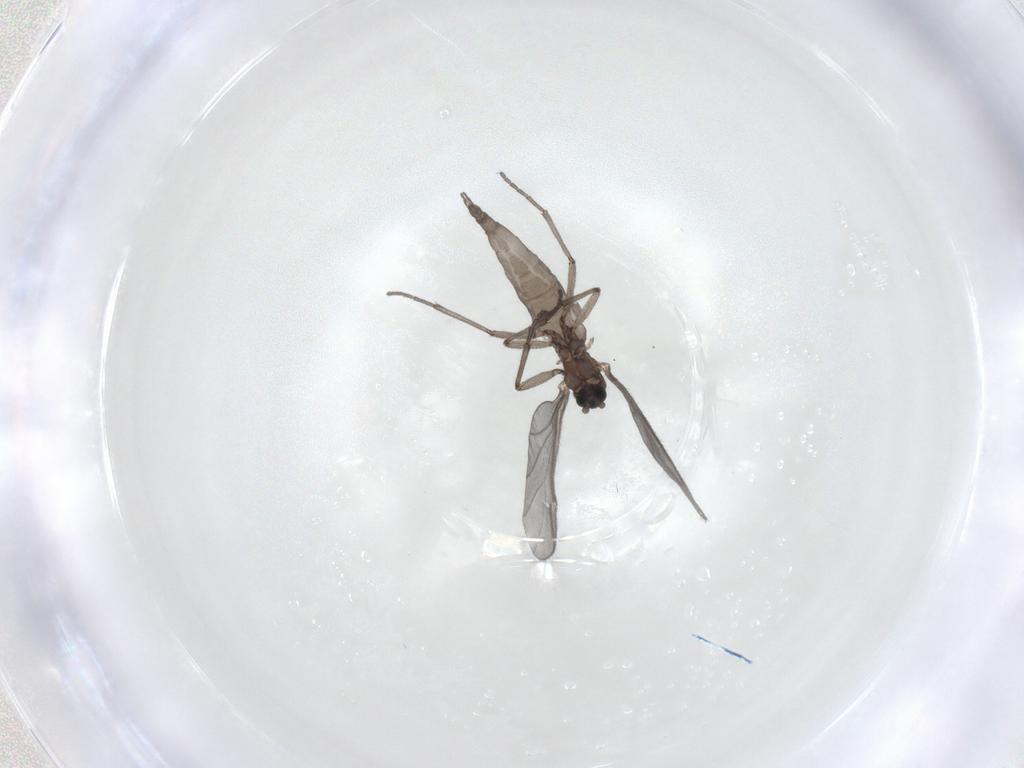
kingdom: Animalia
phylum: Arthropoda
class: Insecta
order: Diptera
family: Sciaridae
